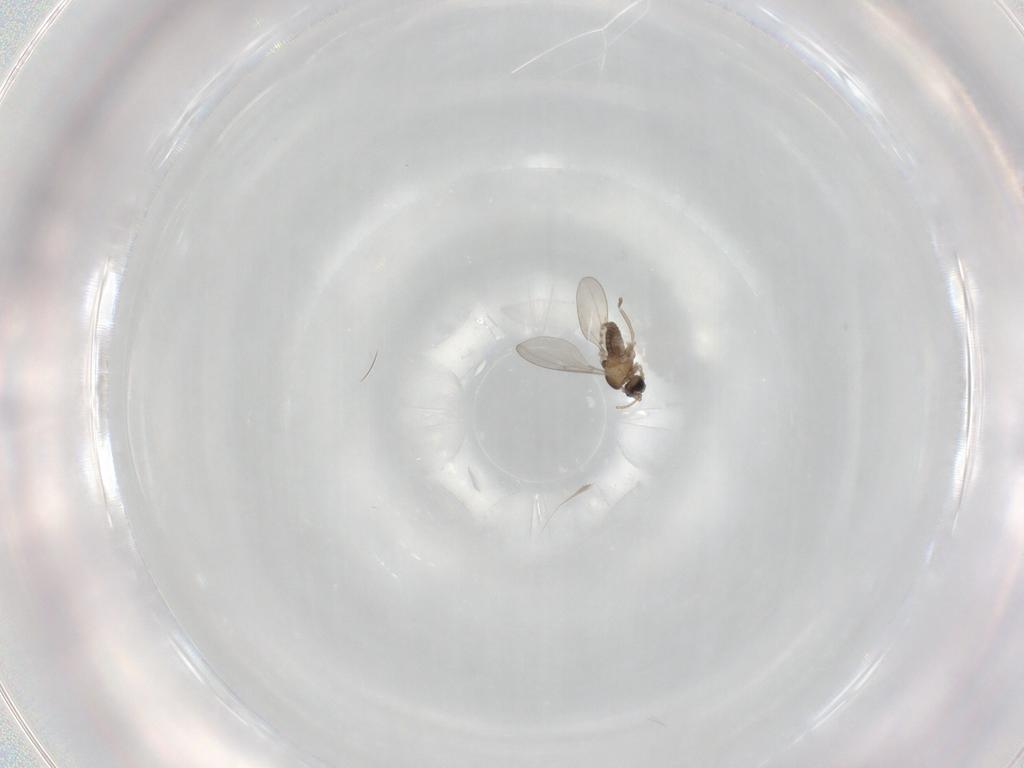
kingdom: Animalia
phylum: Arthropoda
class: Insecta
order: Diptera
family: Cecidomyiidae
